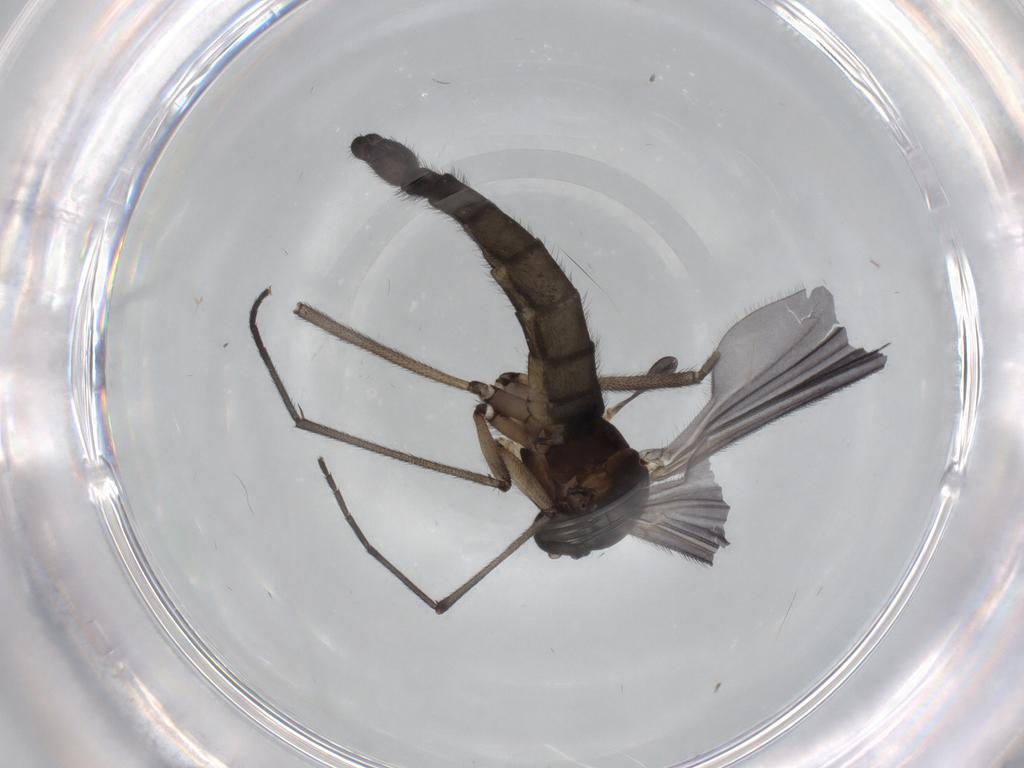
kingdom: Animalia
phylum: Arthropoda
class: Insecta
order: Diptera
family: Sciaridae
